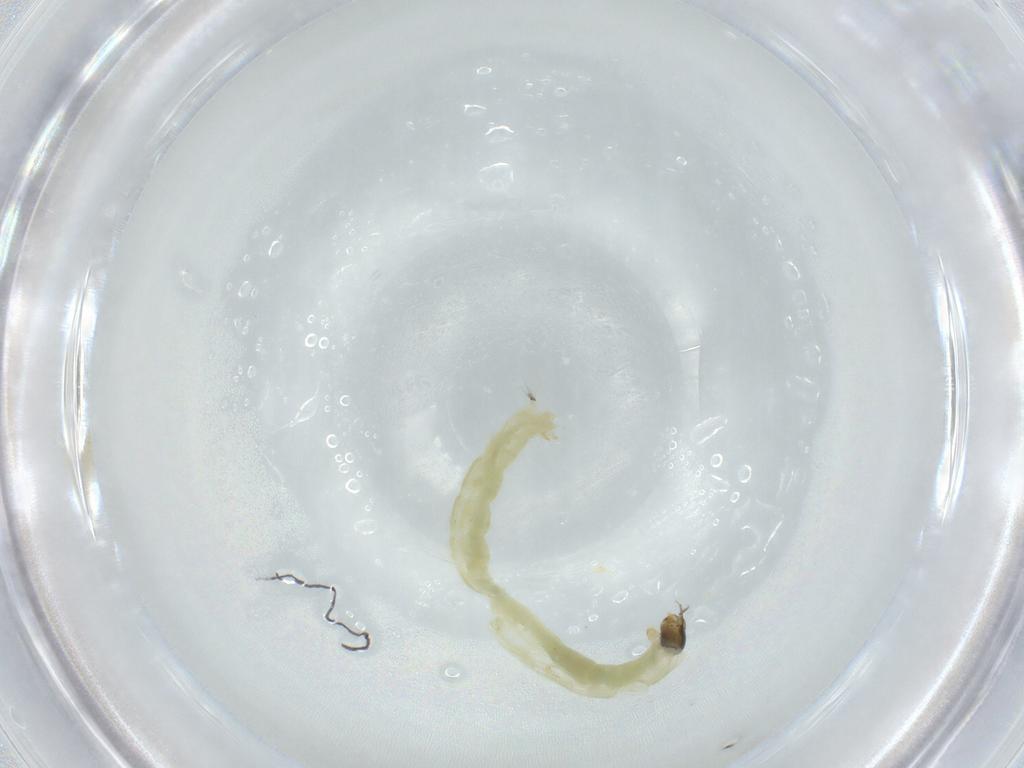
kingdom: Animalia
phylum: Arthropoda
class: Insecta
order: Diptera
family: Chironomidae
